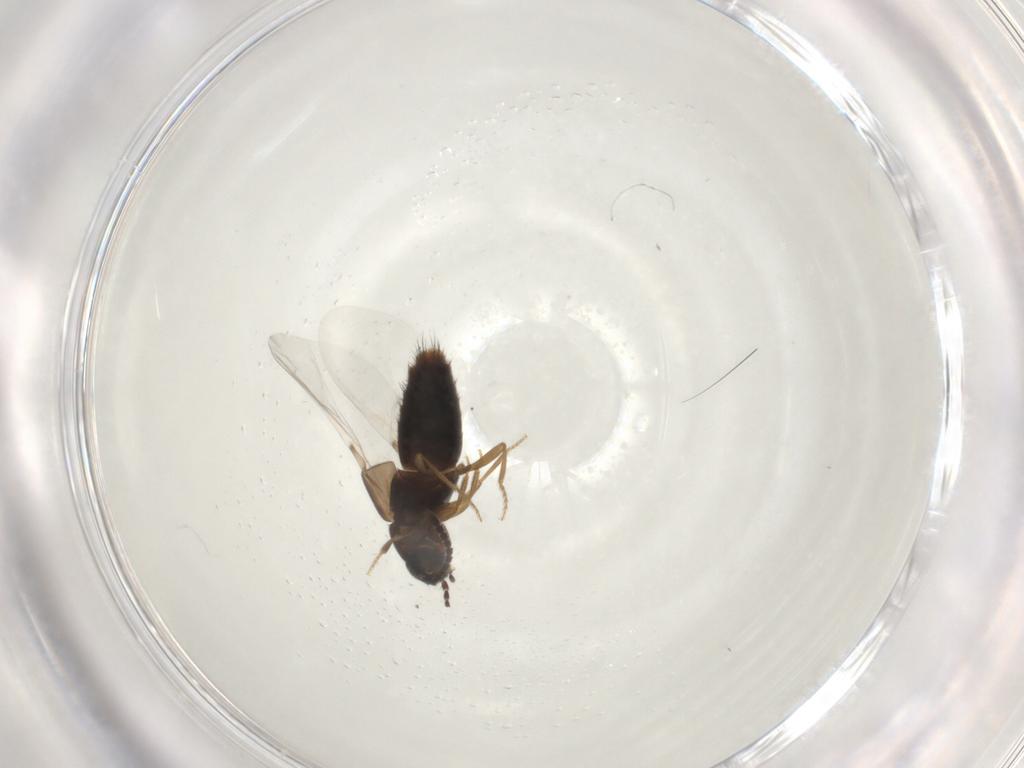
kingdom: Animalia
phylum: Arthropoda
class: Insecta
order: Coleoptera
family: Staphylinidae
